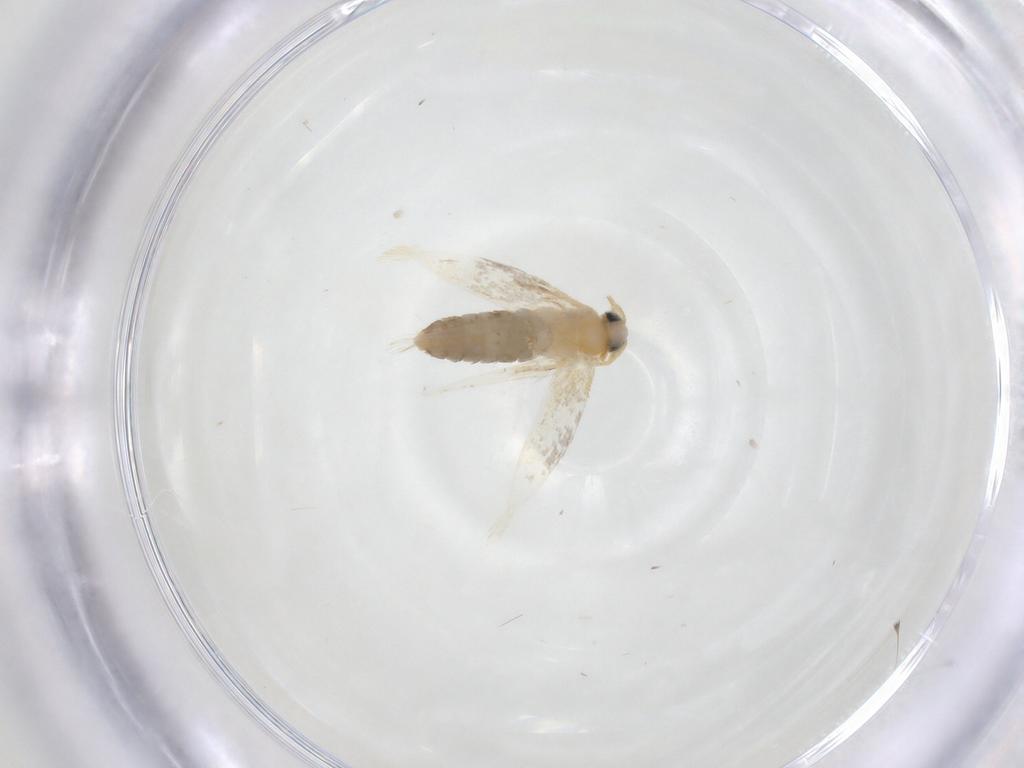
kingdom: Animalia
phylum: Arthropoda
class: Insecta
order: Lepidoptera
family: Nepticulidae
